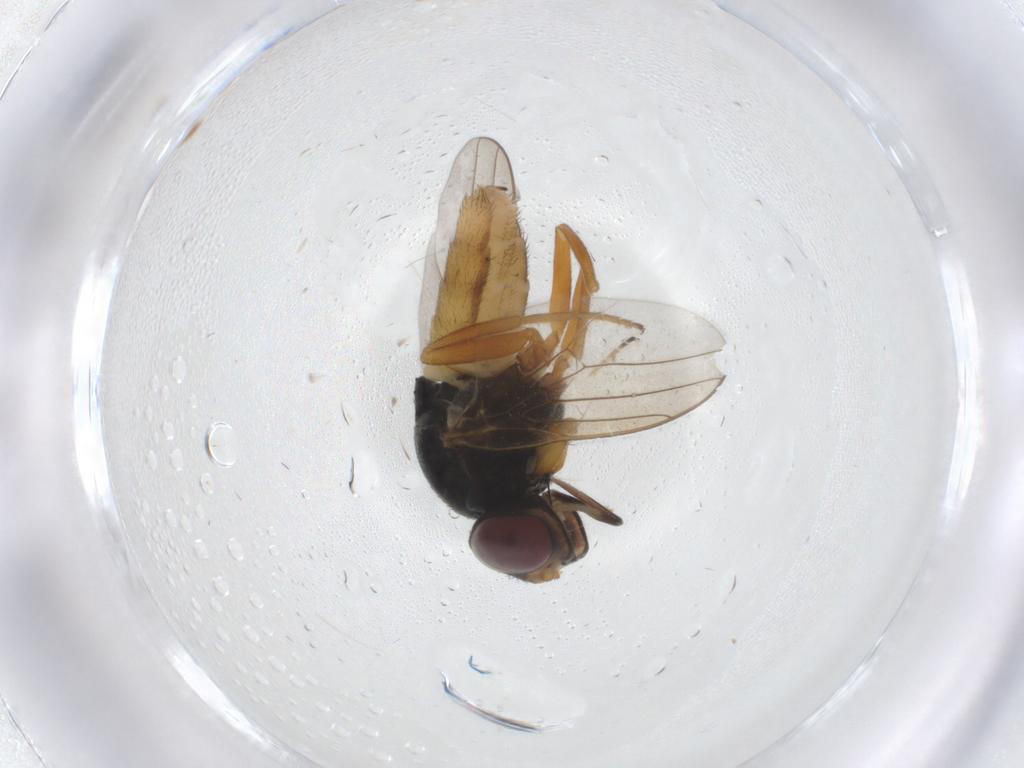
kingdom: Animalia
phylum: Arthropoda
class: Insecta
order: Diptera
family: Chloropidae
